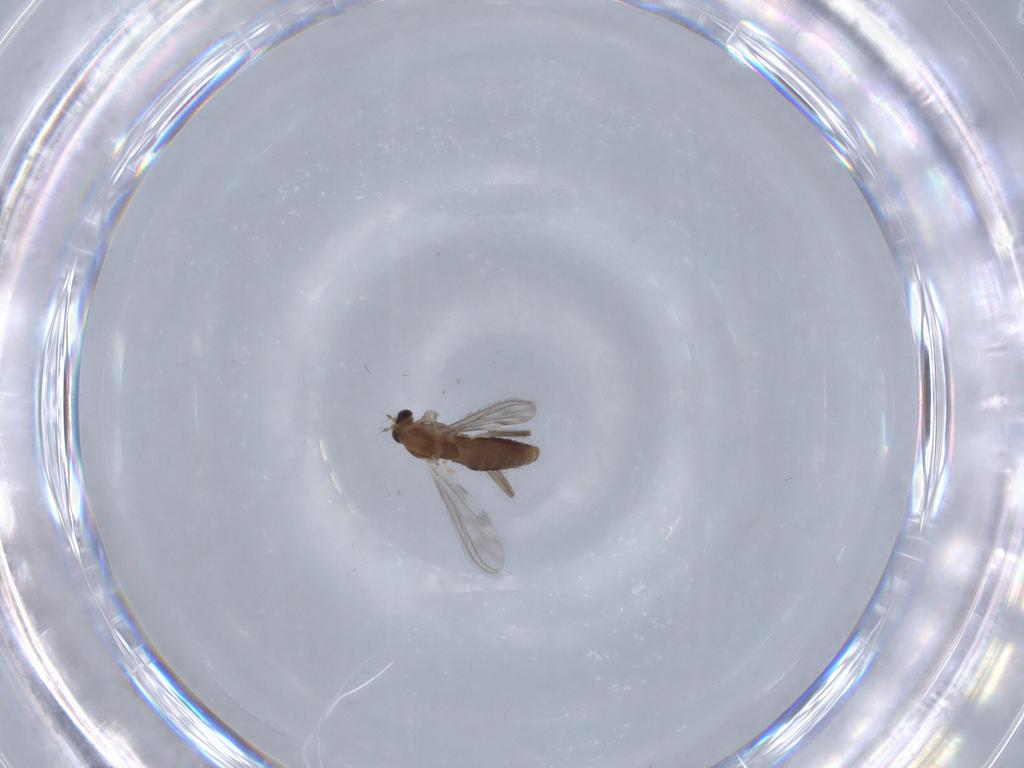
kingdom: Animalia
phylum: Arthropoda
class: Insecta
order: Diptera
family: Chironomidae
